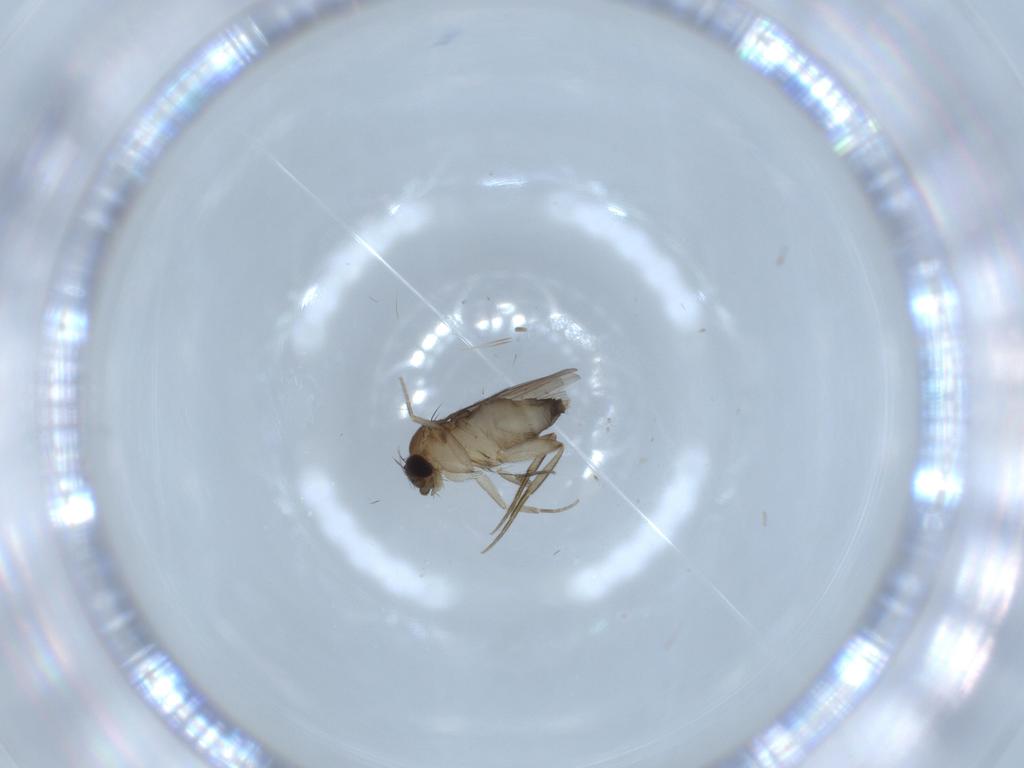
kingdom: Animalia
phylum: Arthropoda
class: Insecta
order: Diptera
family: Phoridae
